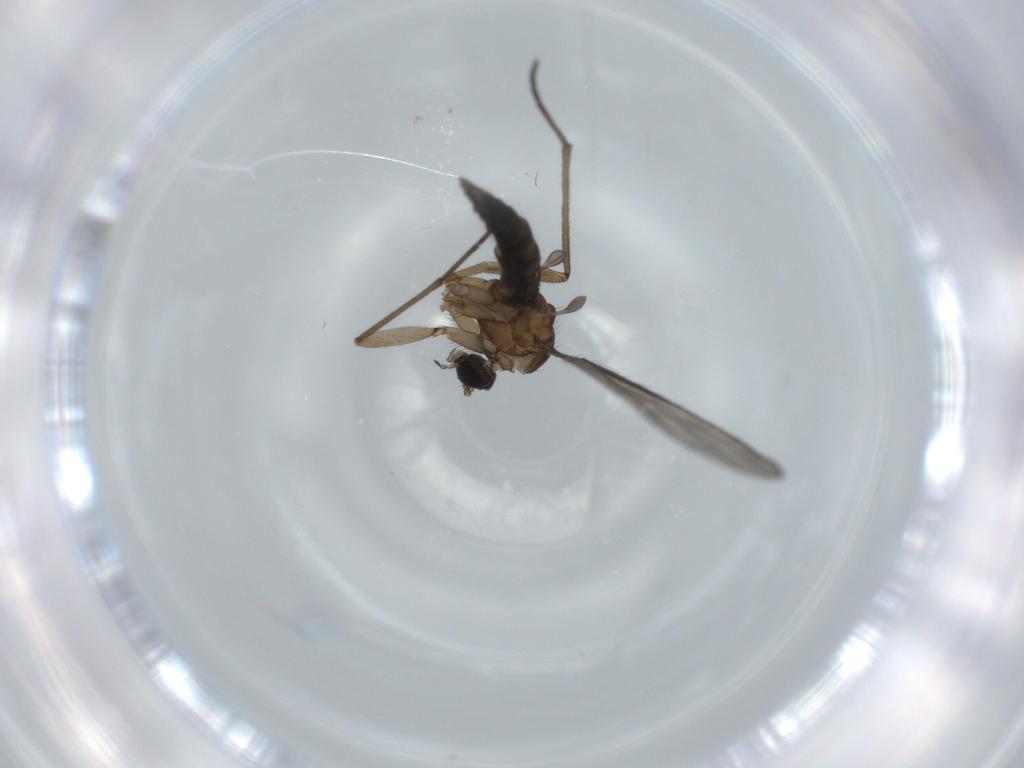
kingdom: Animalia
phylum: Arthropoda
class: Insecta
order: Diptera
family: Sciaridae
